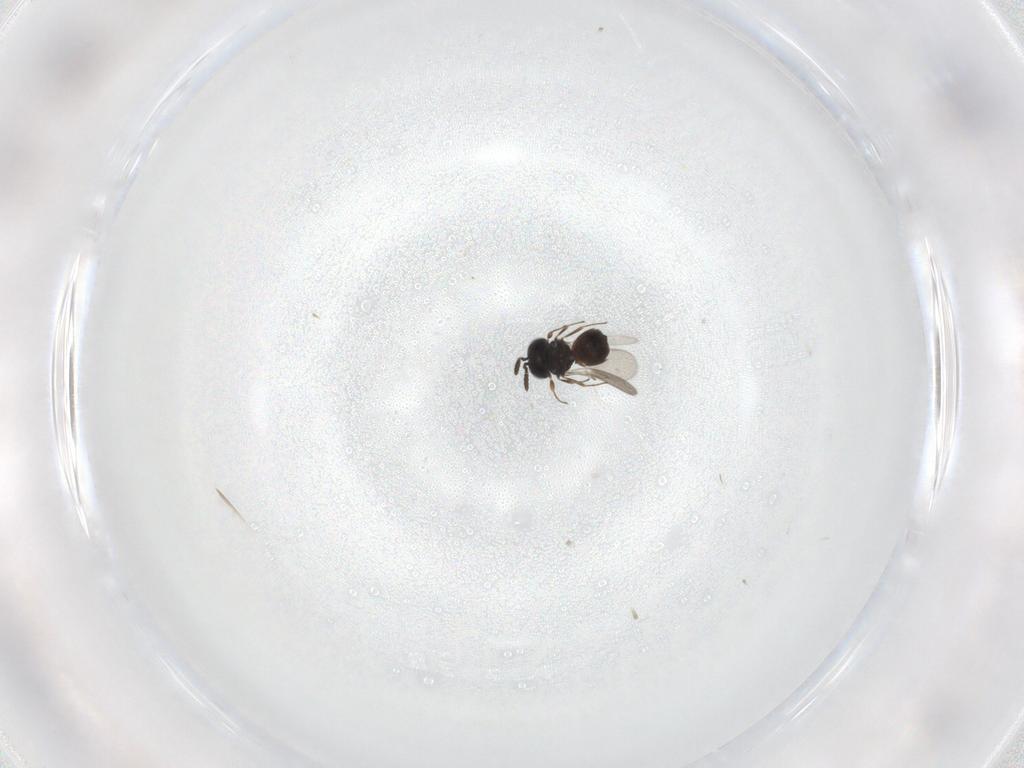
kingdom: Animalia
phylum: Arthropoda
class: Insecta
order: Hymenoptera
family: Scelionidae
